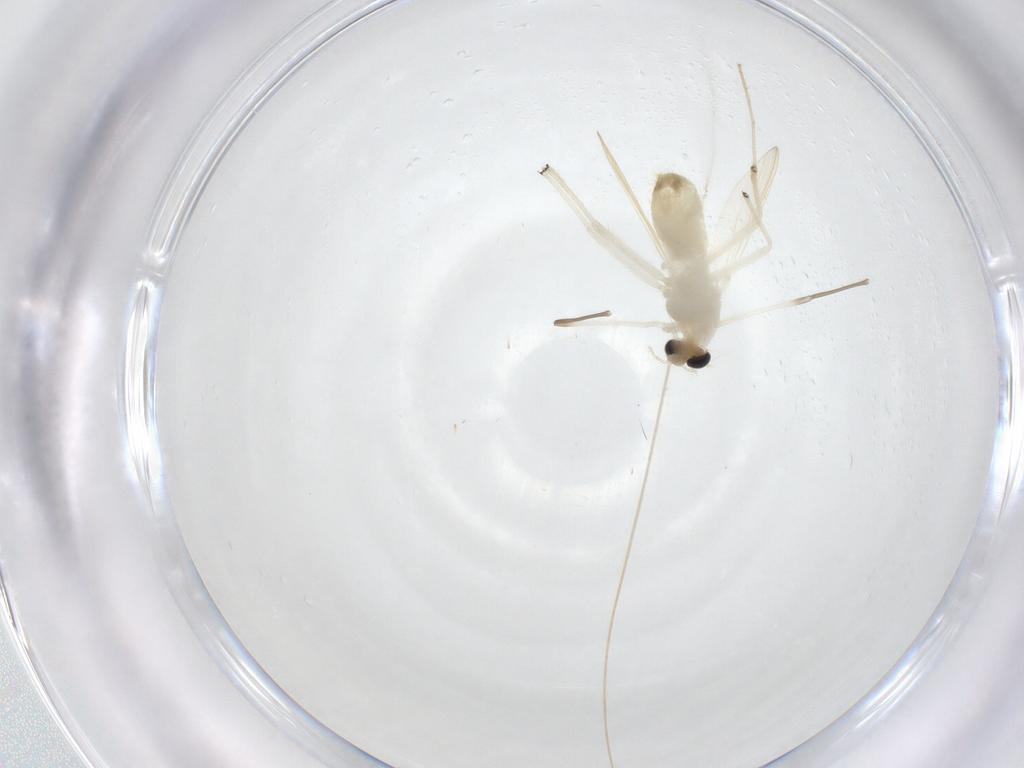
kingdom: Animalia
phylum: Arthropoda
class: Insecta
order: Diptera
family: Chironomidae
